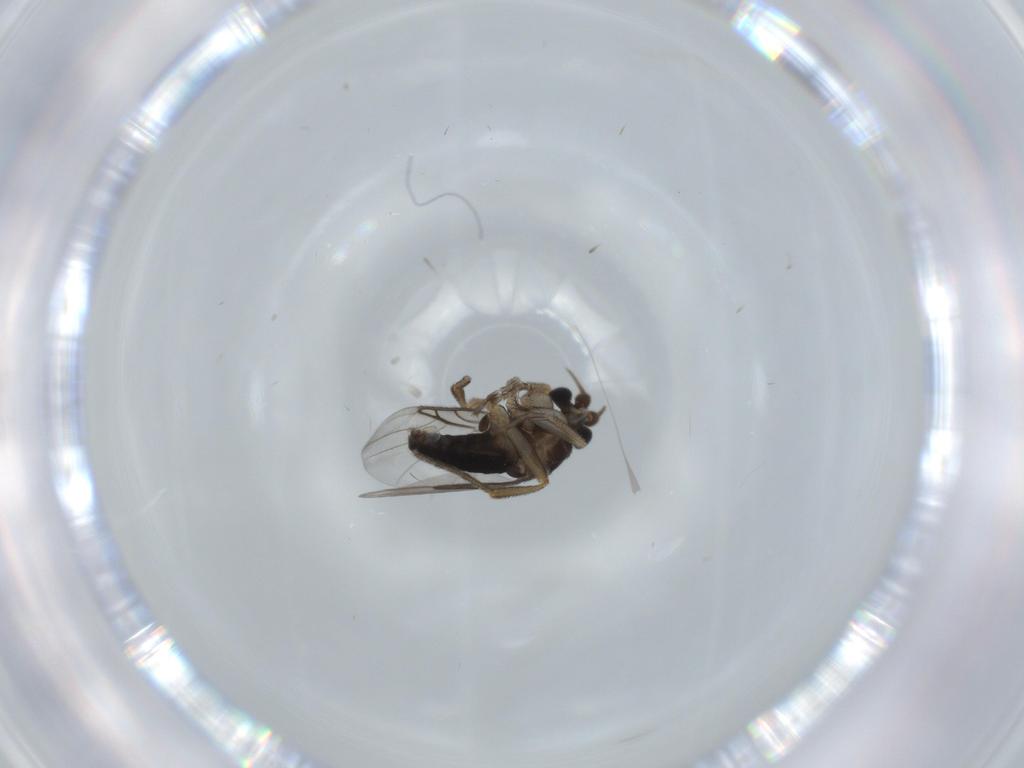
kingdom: Animalia
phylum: Arthropoda
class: Insecta
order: Diptera
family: Phoridae
